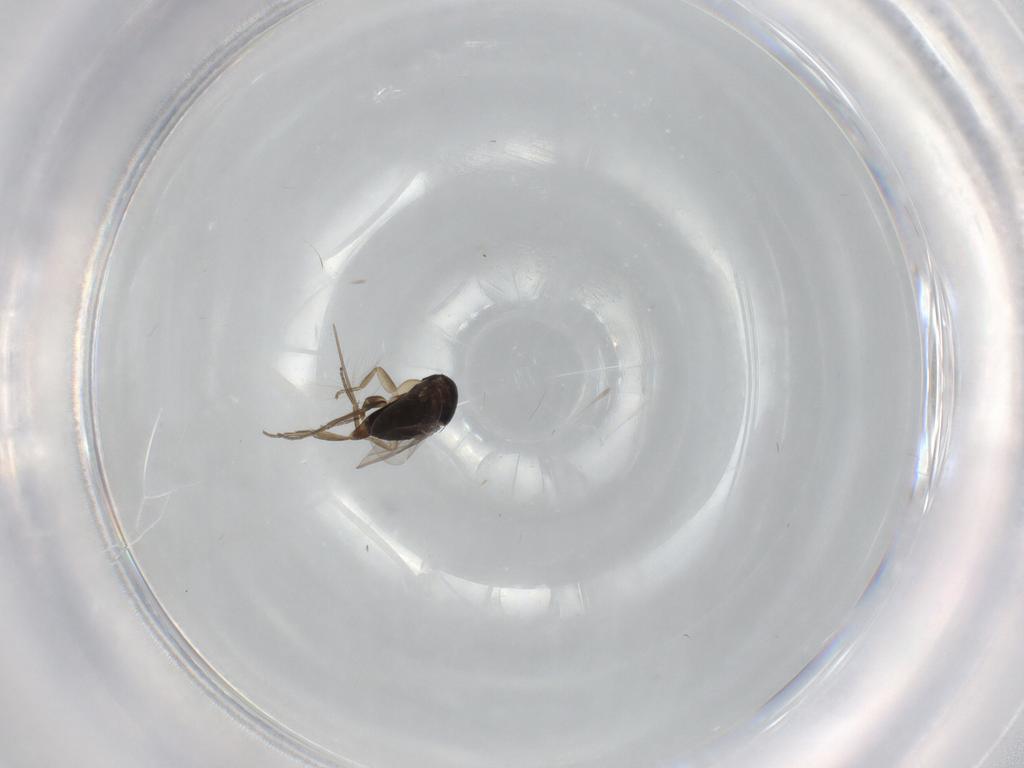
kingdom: Animalia
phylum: Arthropoda
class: Insecta
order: Diptera
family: Phoridae
